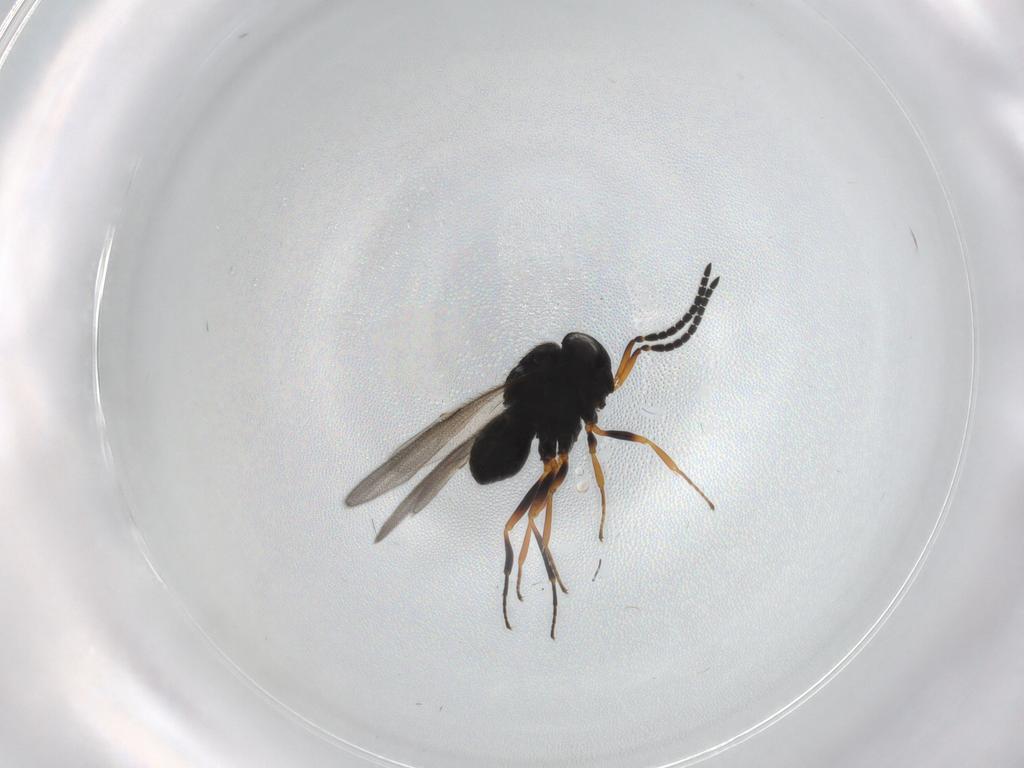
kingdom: Animalia
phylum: Arthropoda
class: Insecta
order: Hymenoptera
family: Scelionidae
